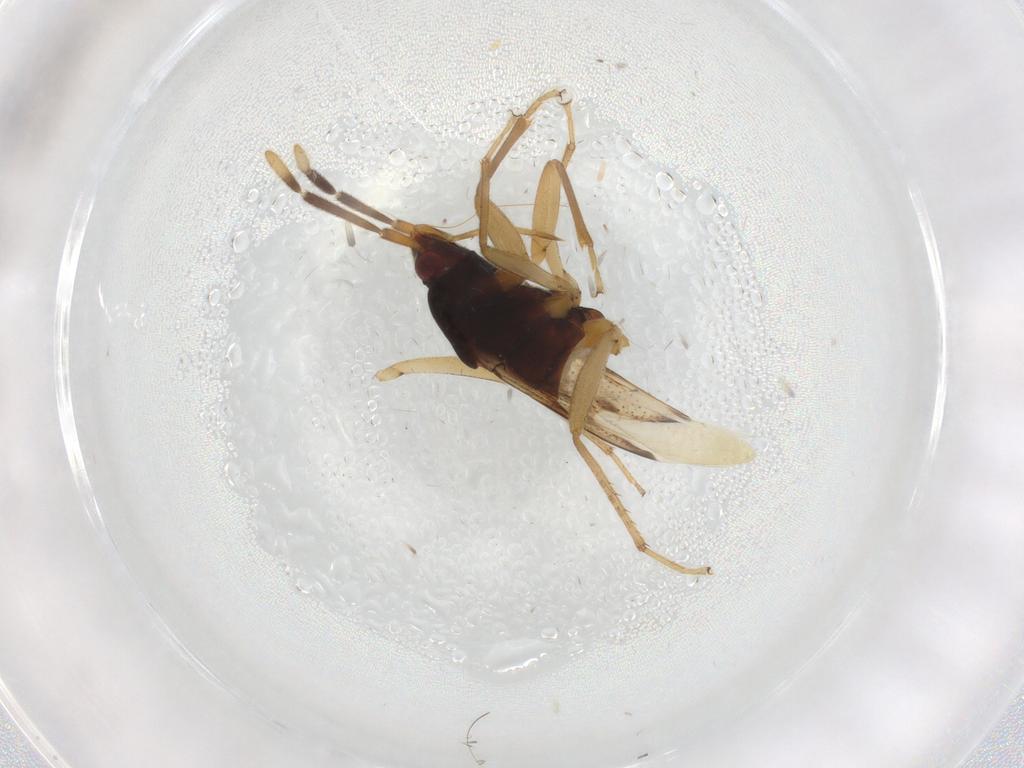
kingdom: Animalia
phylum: Arthropoda
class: Insecta
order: Hemiptera
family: Rhyparochromidae
